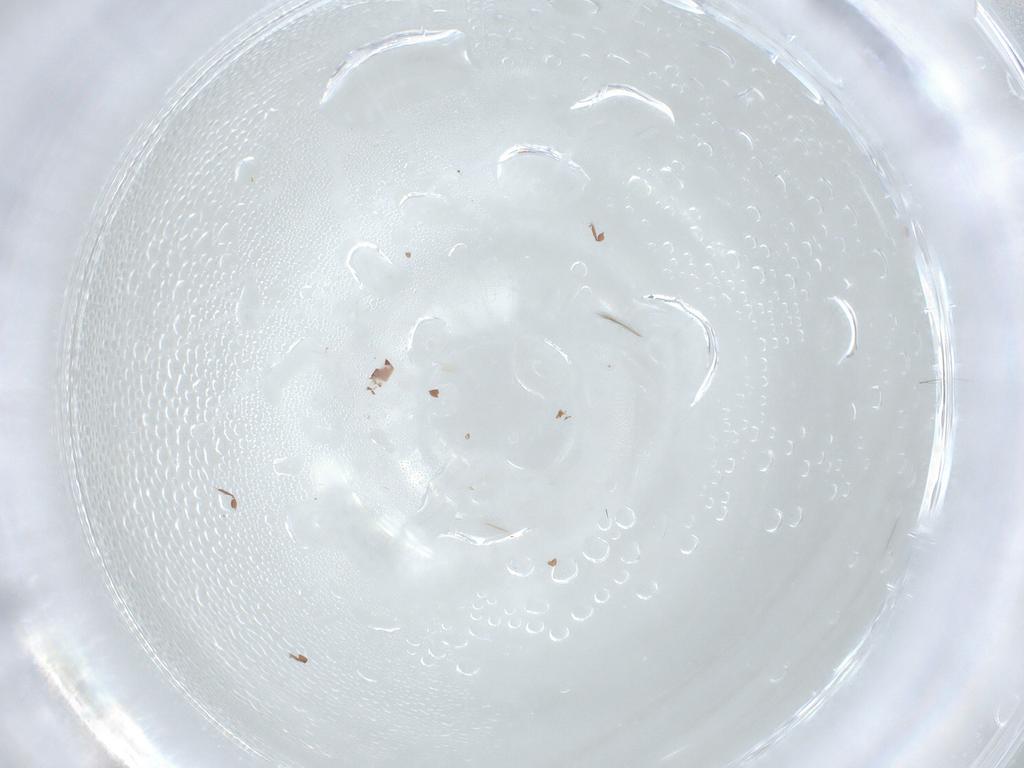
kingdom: Animalia
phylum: Arthropoda
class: Arachnida
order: Sarcoptiformes
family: Humerobatidae
